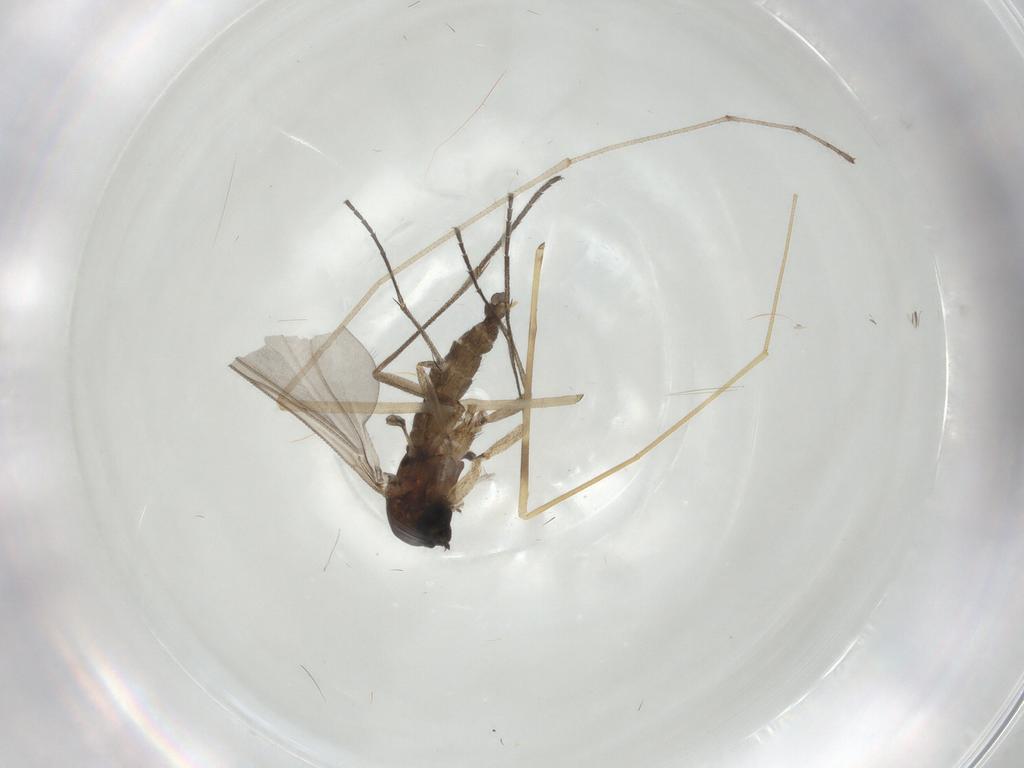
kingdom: Animalia
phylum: Arthropoda
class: Insecta
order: Diptera
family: Sciaridae
